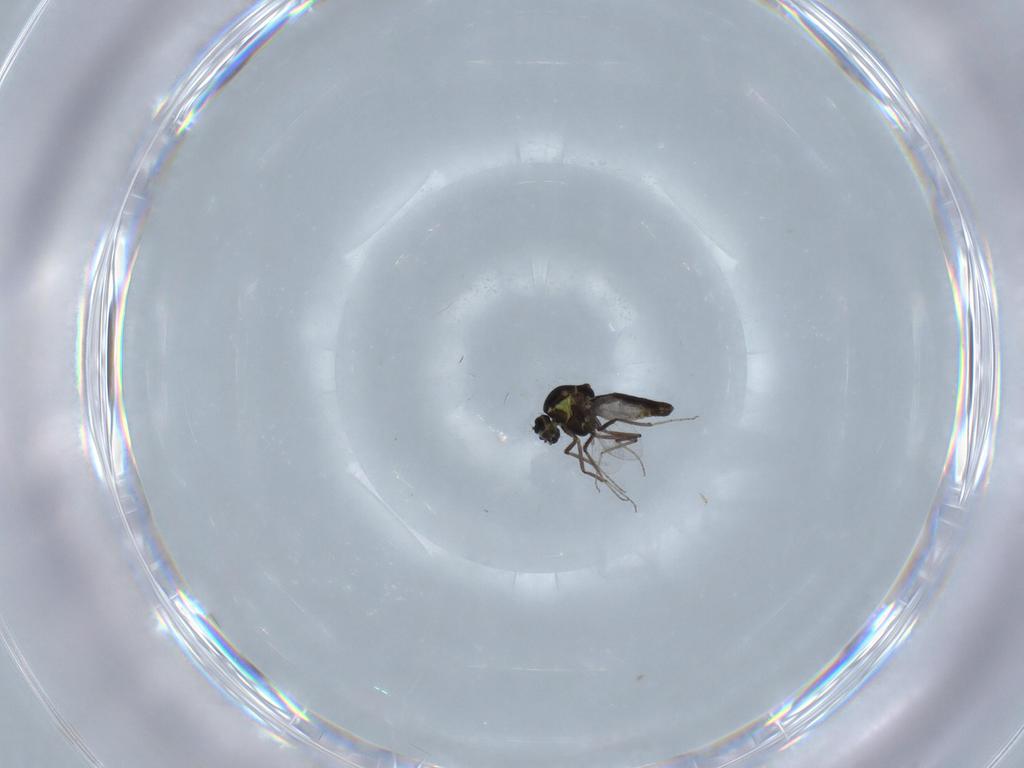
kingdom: Animalia
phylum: Arthropoda
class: Insecta
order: Diptera
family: Ceratopogonidae
